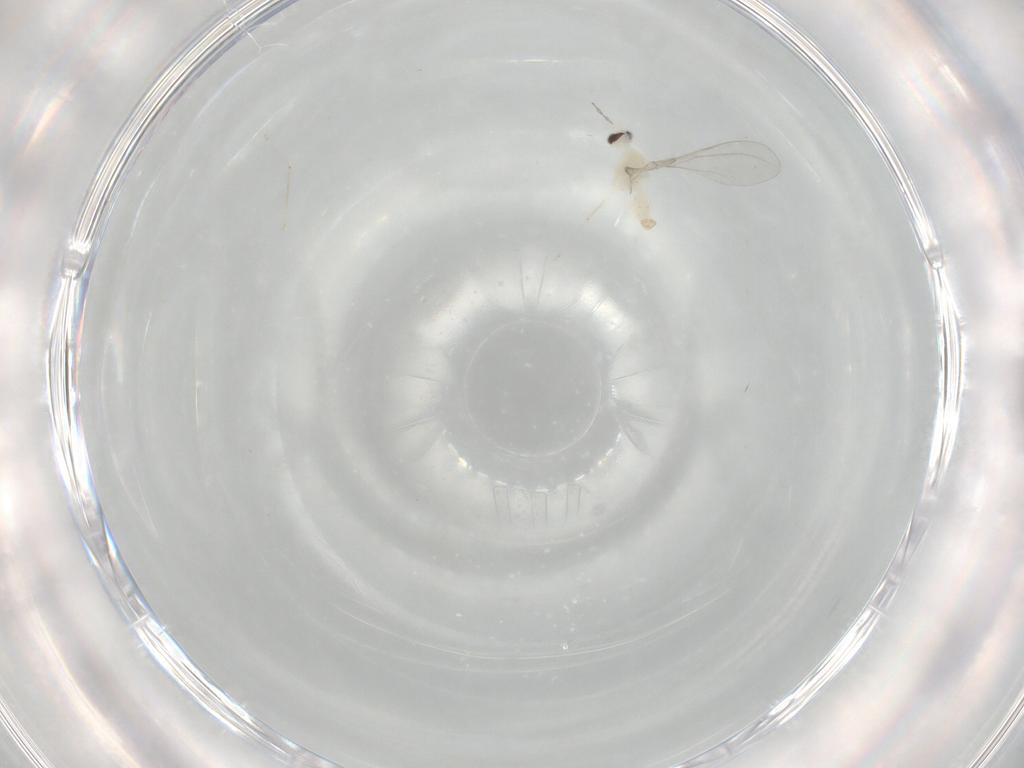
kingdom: Animalia
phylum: Arthropoda
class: Insecta
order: Diptera
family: Cecidomyiidae
